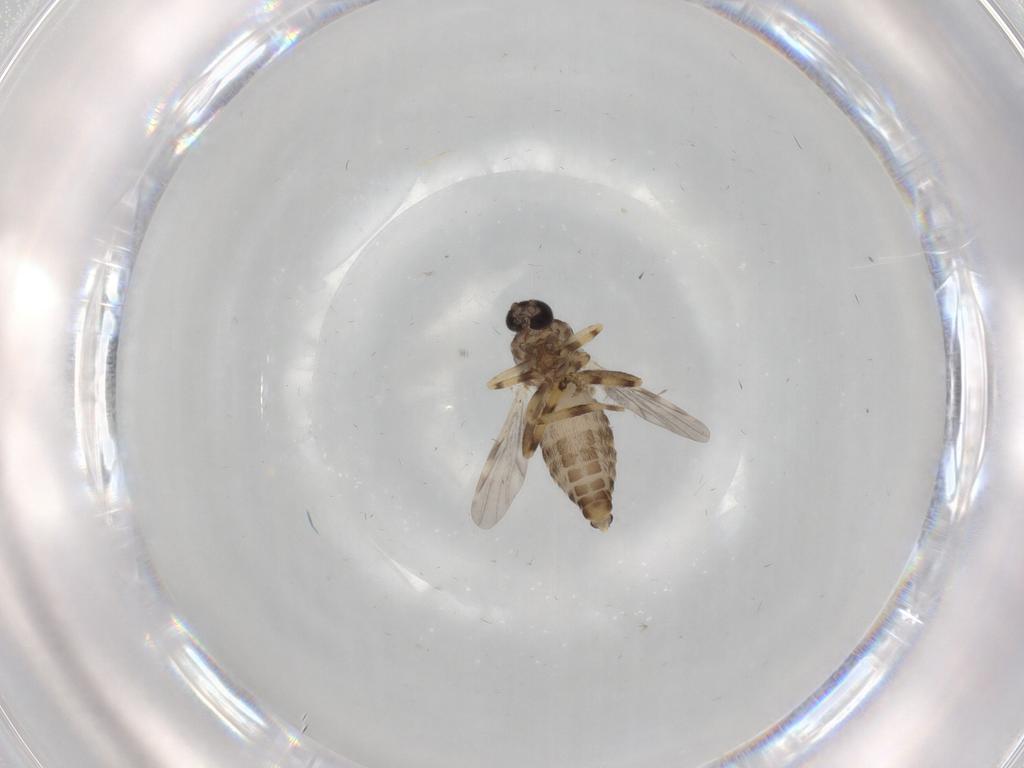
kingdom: Animalia
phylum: Arthropoda
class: Insecta
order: Diptera
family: Ceratopogonidae
